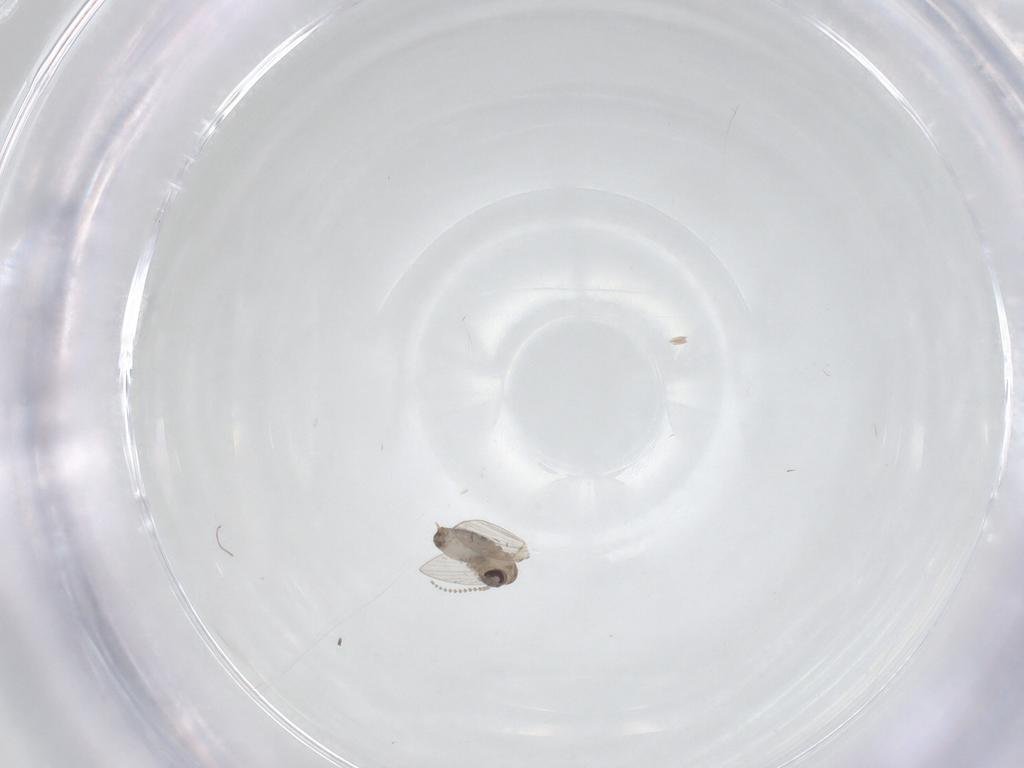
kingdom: Animalia
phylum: Arthropoda
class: Insecta
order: Diptera
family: Psychodidae
